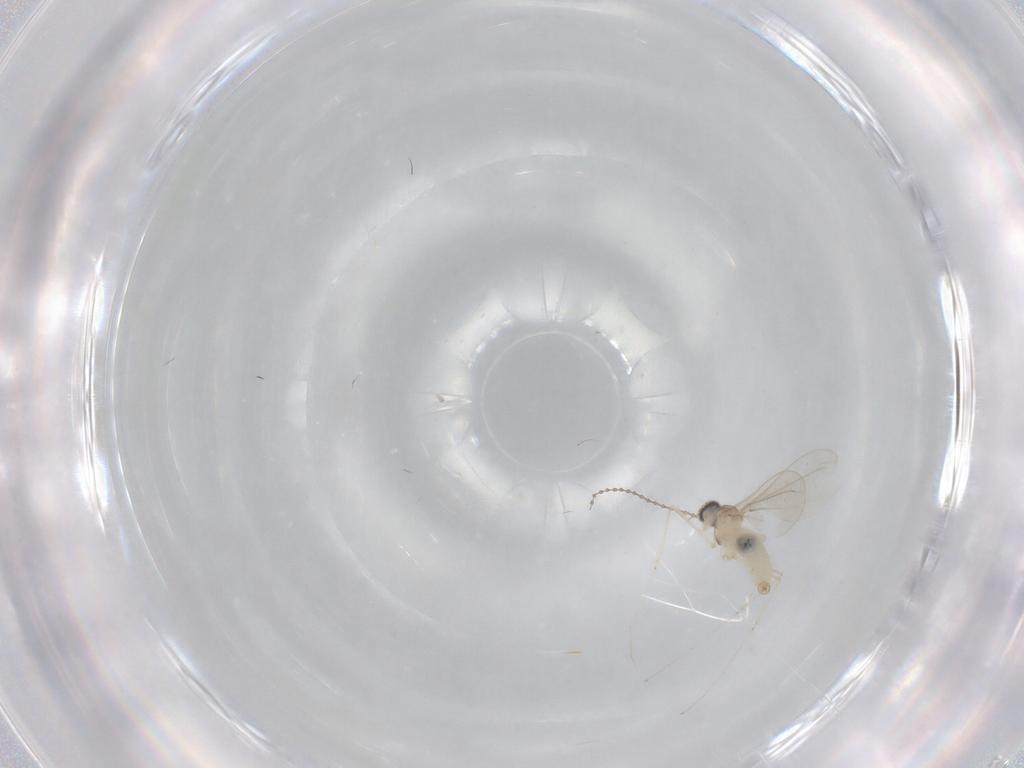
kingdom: Animalia
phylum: Arthropoda
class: Insecta
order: Diptera
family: Cecidomyiidae
